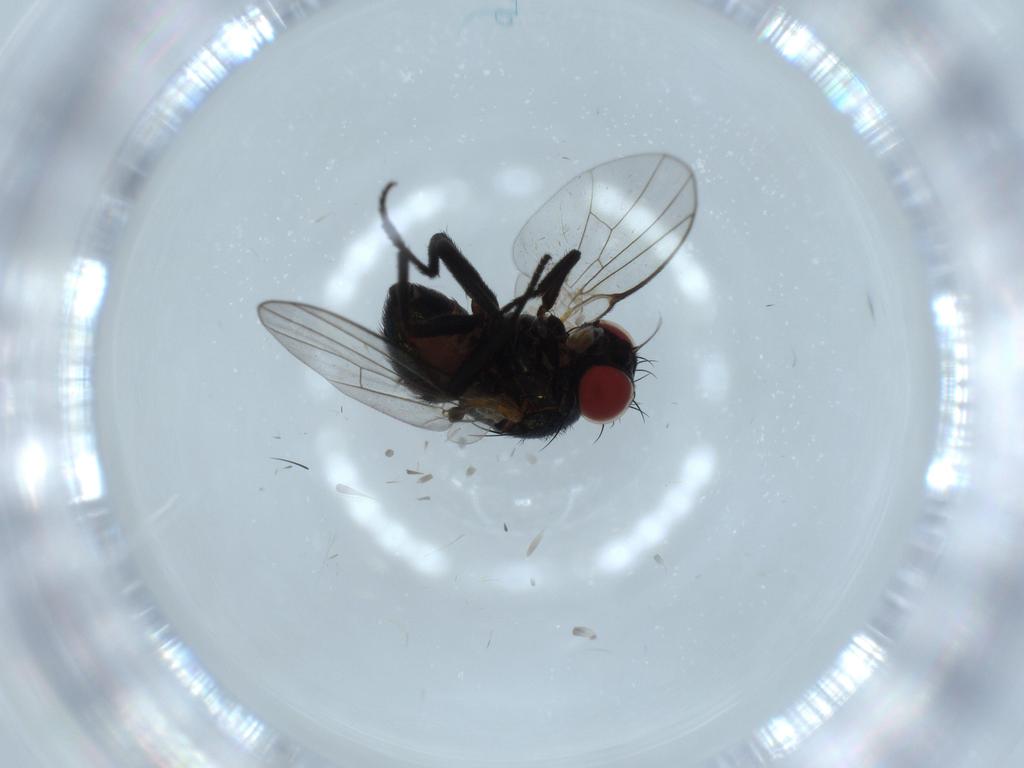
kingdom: Animalia
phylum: Arthropoda
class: Insecta
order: Diptera
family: Agromyzidae
